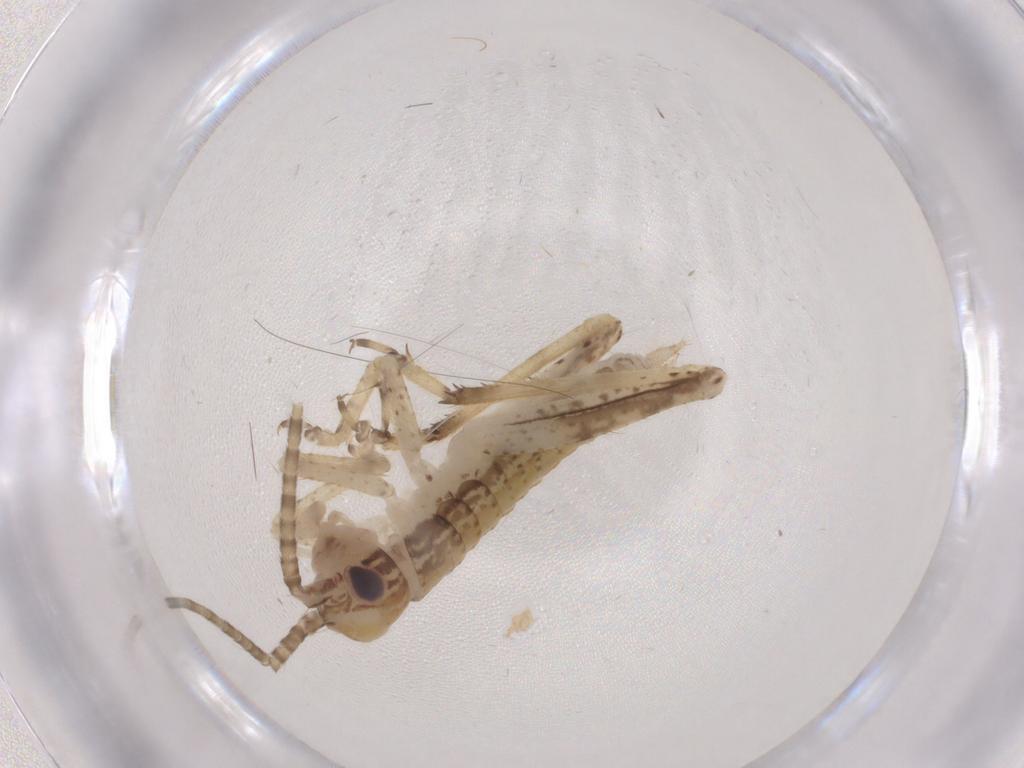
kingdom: Animalia
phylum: Arthropoda
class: Insecta
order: Orthoptera
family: Gryllidae
